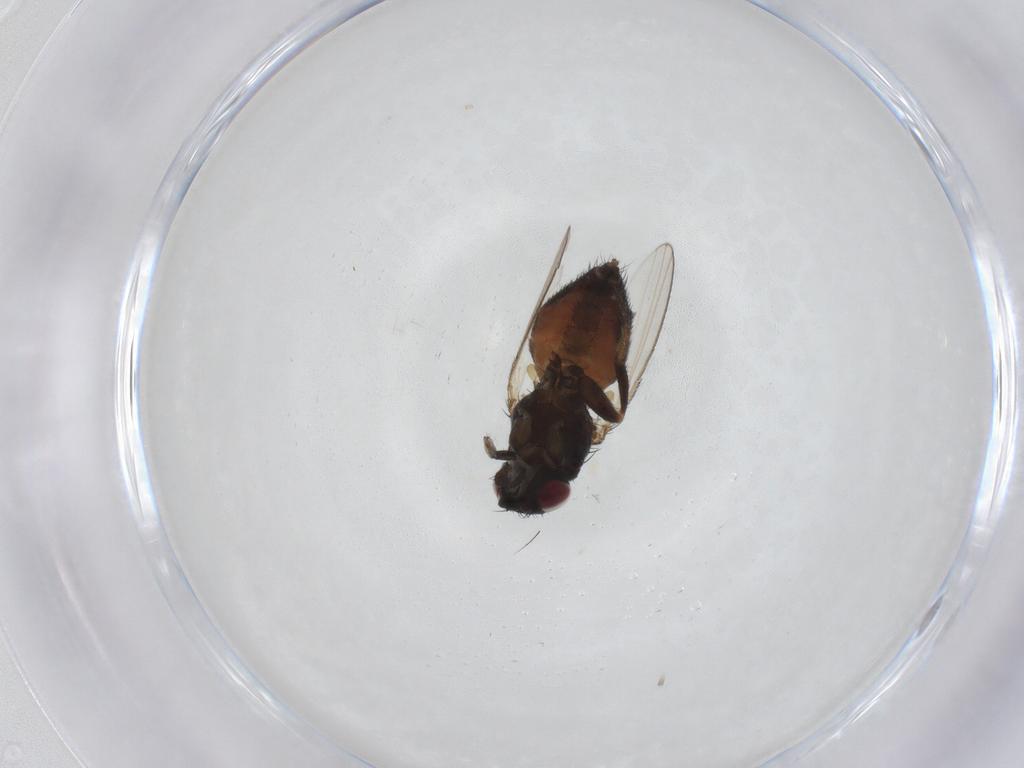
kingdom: Animalia
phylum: Arthropoda
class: Insecta
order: Diptera
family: Milichiidae
